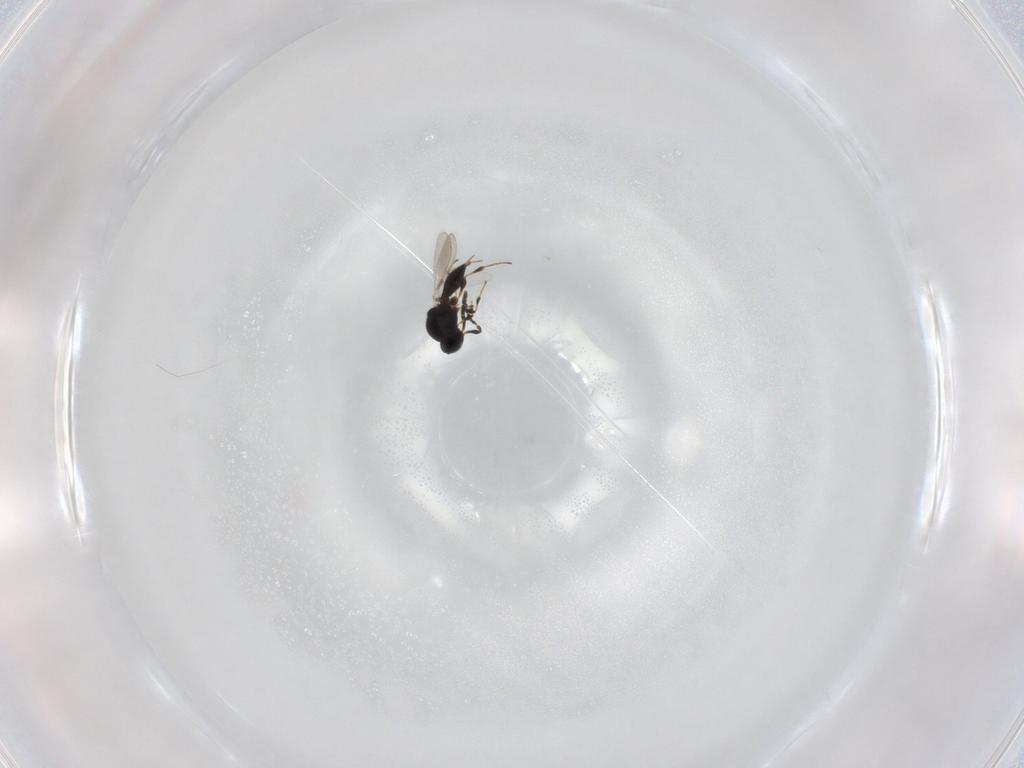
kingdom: Animalia
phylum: Arthropoda
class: Insecta
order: Hymenoptera
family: Platygastridae
